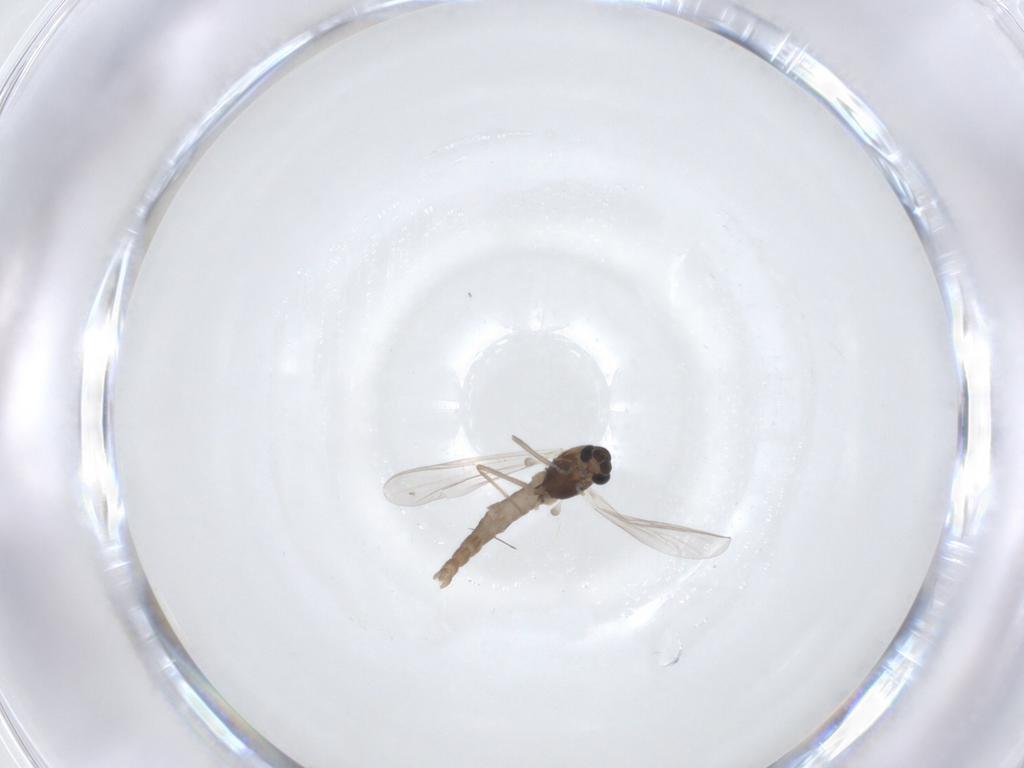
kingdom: Animalia
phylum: Arthropoda
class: Insecta
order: Diptera
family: Chironomidae
